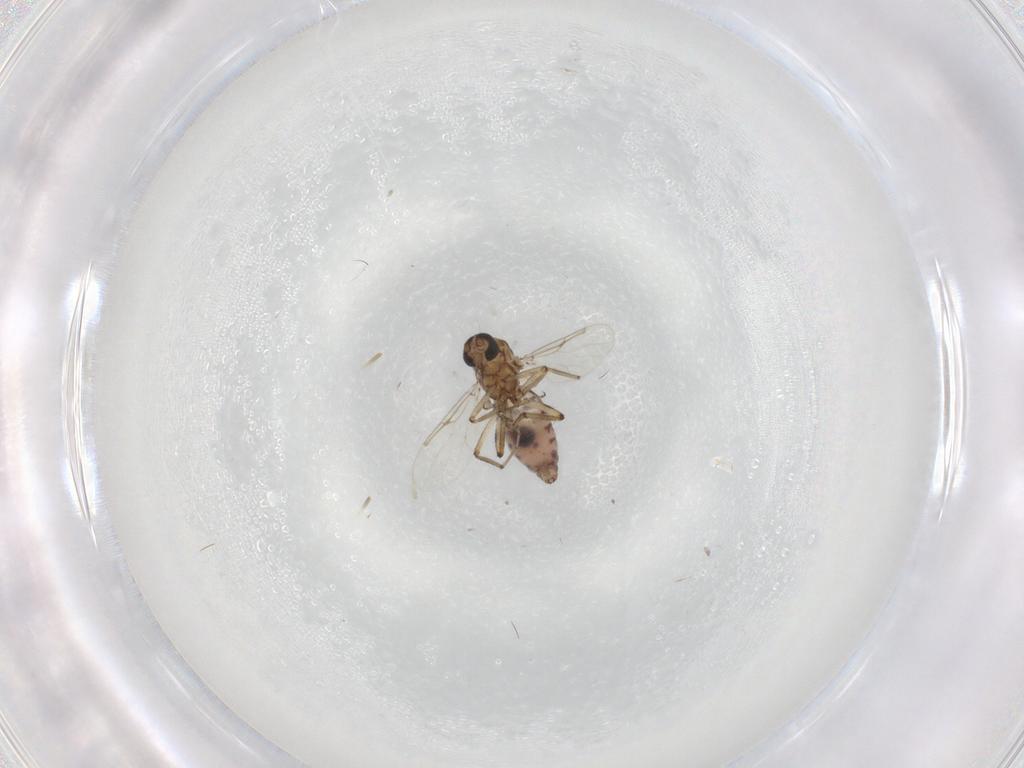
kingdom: Animalia
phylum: Arthropoda
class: Insecta
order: Diptera
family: Ceratopogonidae
